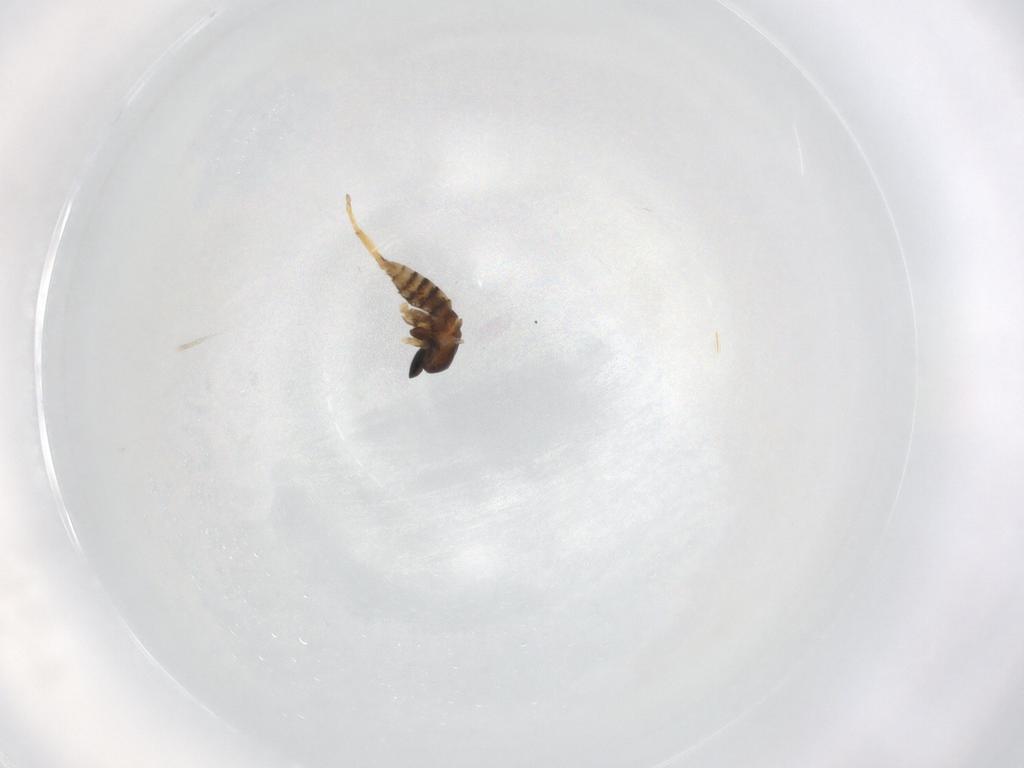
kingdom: Animalia
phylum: Arthropoda
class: Insecta
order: Diptera
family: Cecidomyiidae
